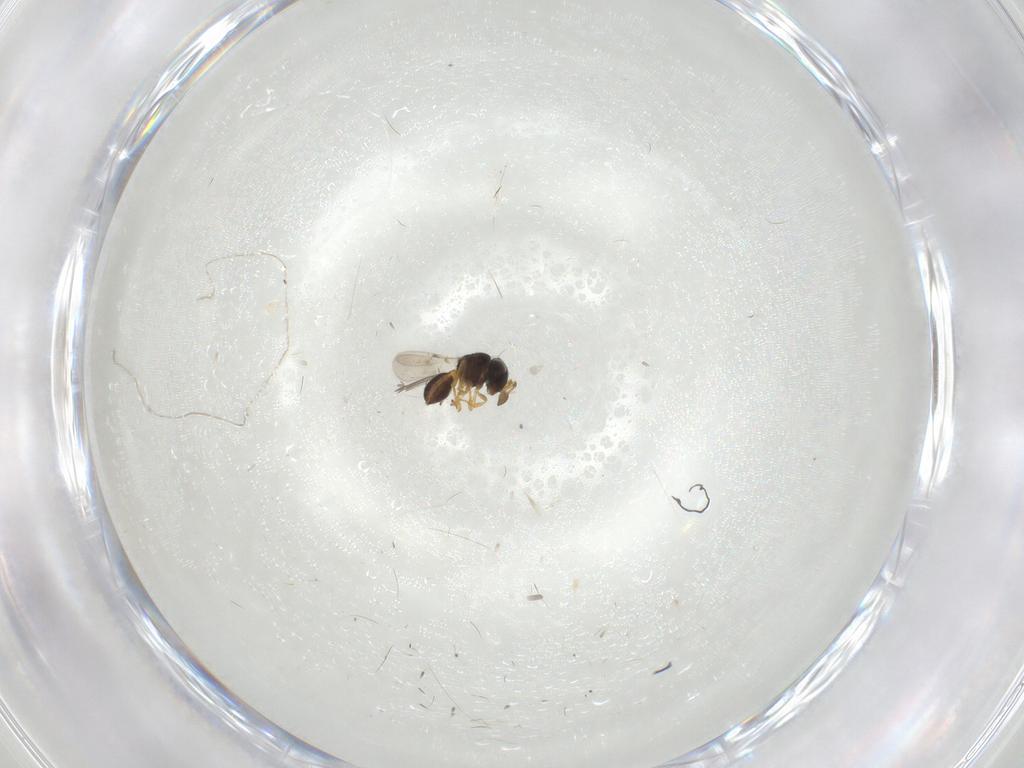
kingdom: Animalia
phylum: Arthropoda
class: Insecta
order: Hymenoptera
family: Scelionidae
